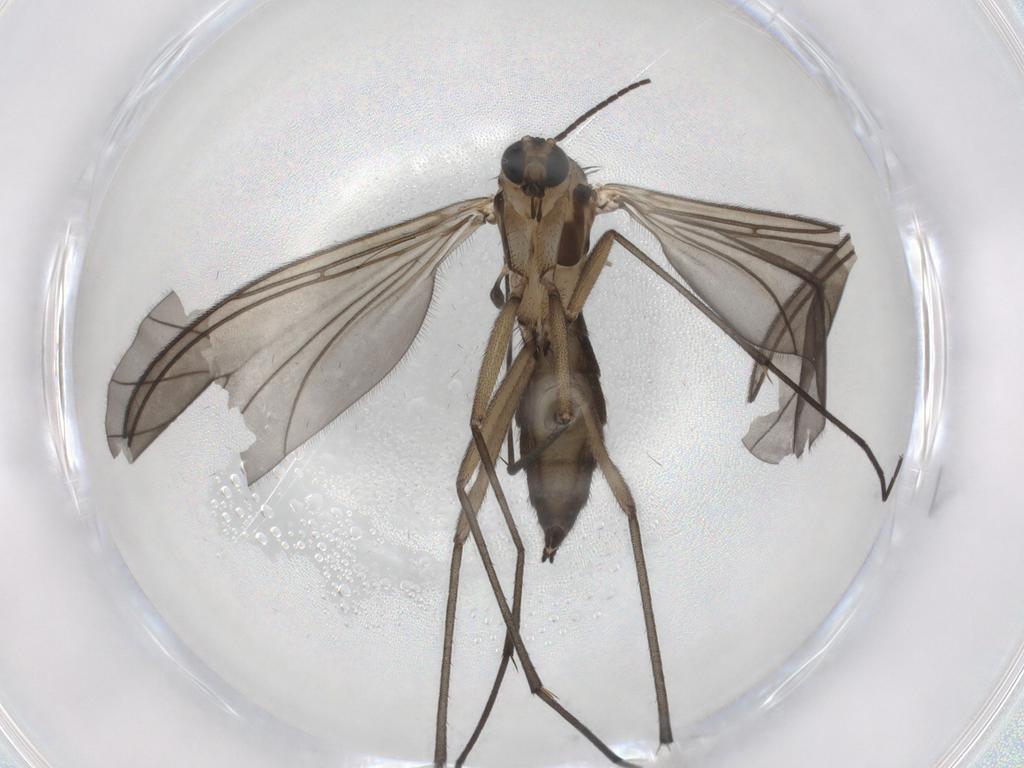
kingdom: Animalia
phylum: Arthropoda
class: Insecta
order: Diptera
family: Sciaridae
